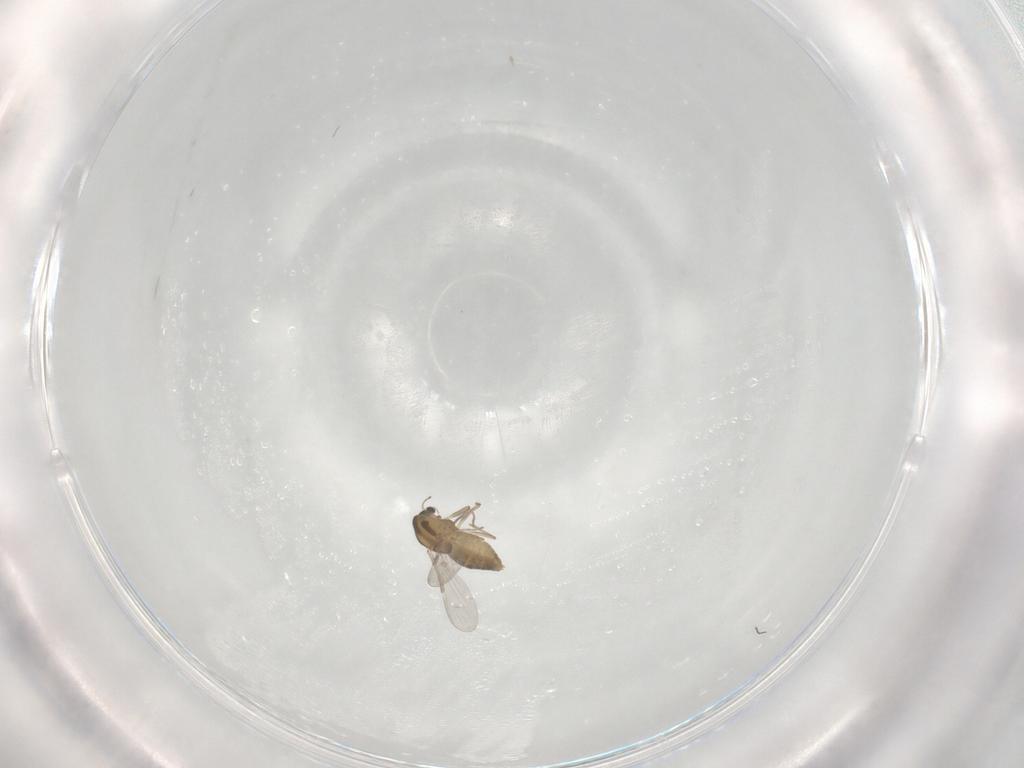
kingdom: Animalia
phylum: Arthropoda
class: Insecta
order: Diptera
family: Chironomidae
